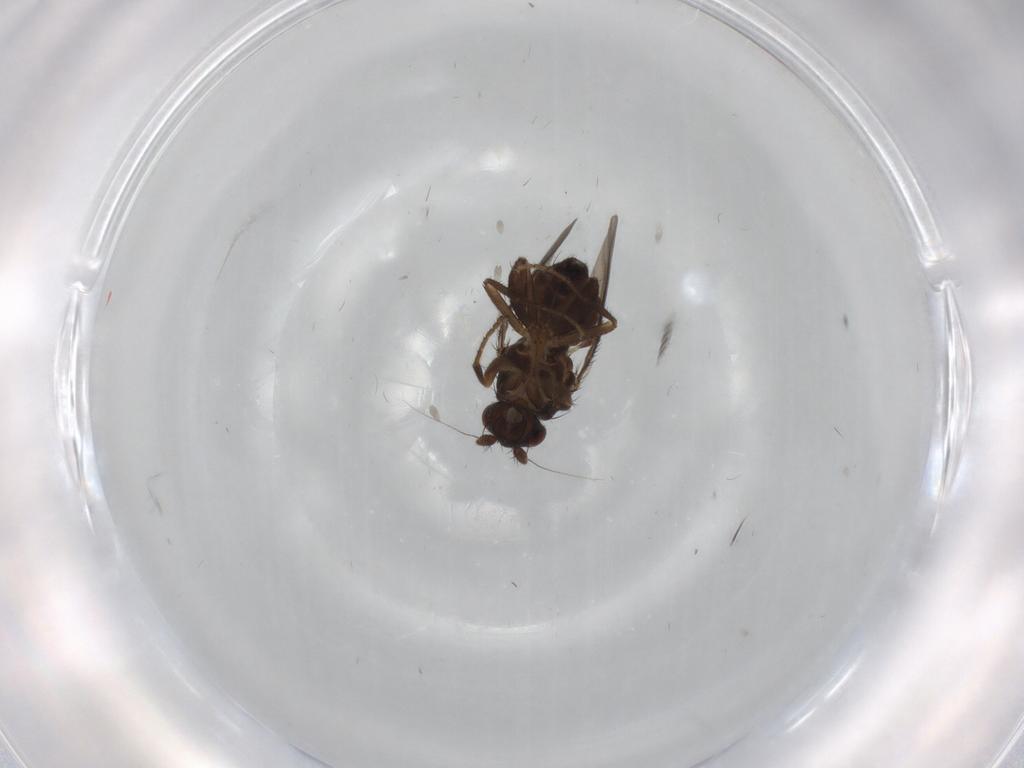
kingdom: Animalia
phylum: Arthropoda
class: Insecta
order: Diptera
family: Sphaeroceridae
